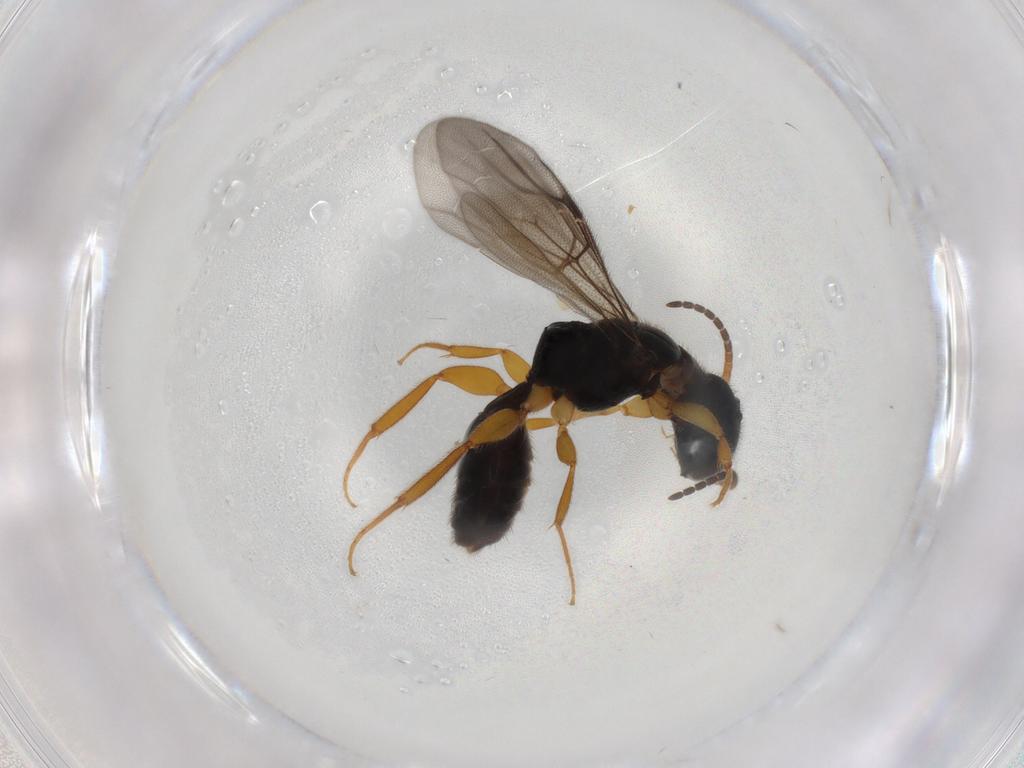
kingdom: Animalia
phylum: Arthropoda
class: Insecta
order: Hymenoptera
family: Bethylidae
